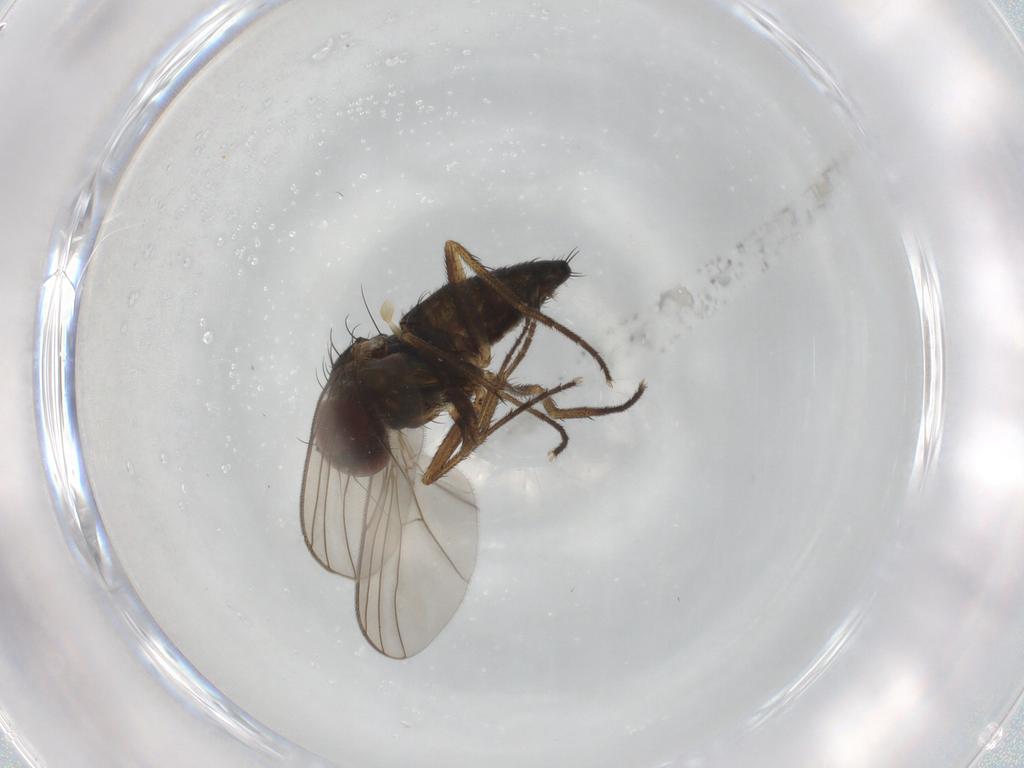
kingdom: Animalia
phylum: Arthropoda
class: Insecta
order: Diptera
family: Dolichopodidae
